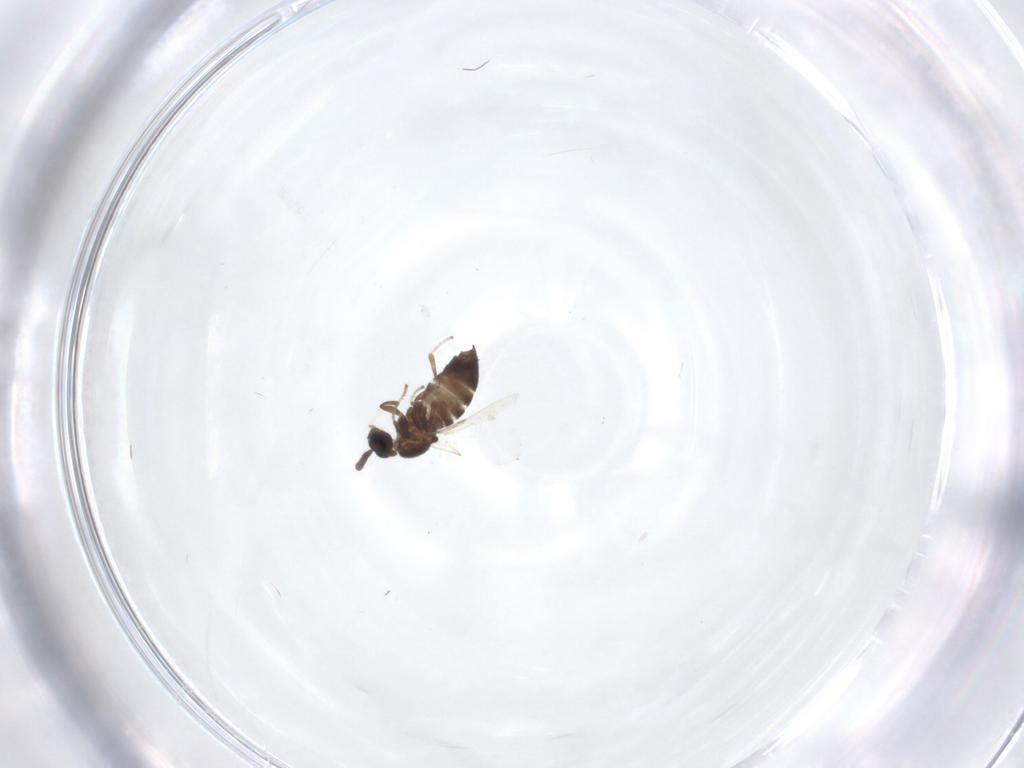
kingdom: Animalia
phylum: Arthropoda
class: Insecta
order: Diptera
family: Scatopsidae
